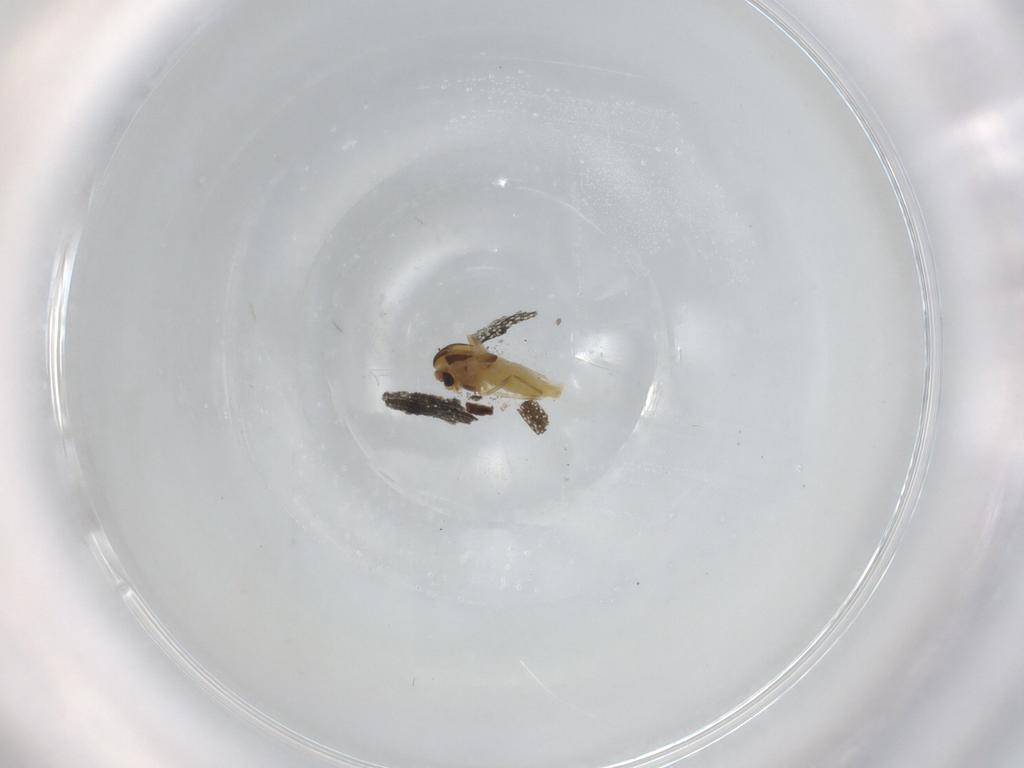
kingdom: Animalia
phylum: Arthropoda
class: Insecta
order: Diptera
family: Chironomidae
